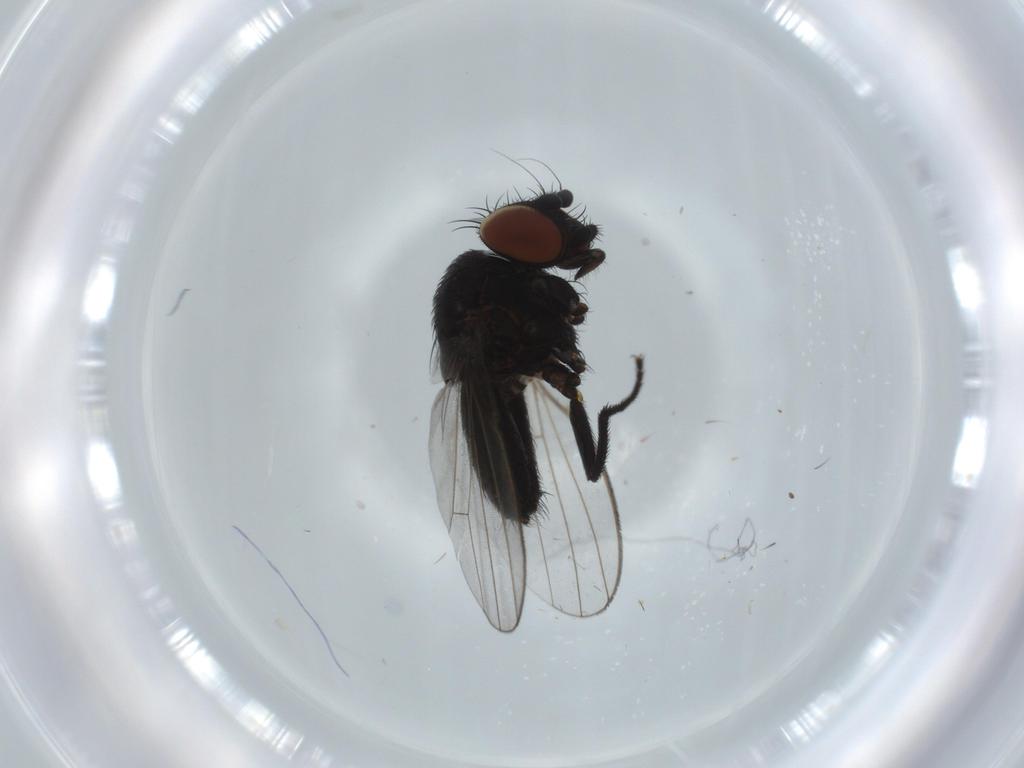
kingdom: Animalia
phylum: Arthropoda
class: Insecta
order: Diptera
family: Milichiidae
